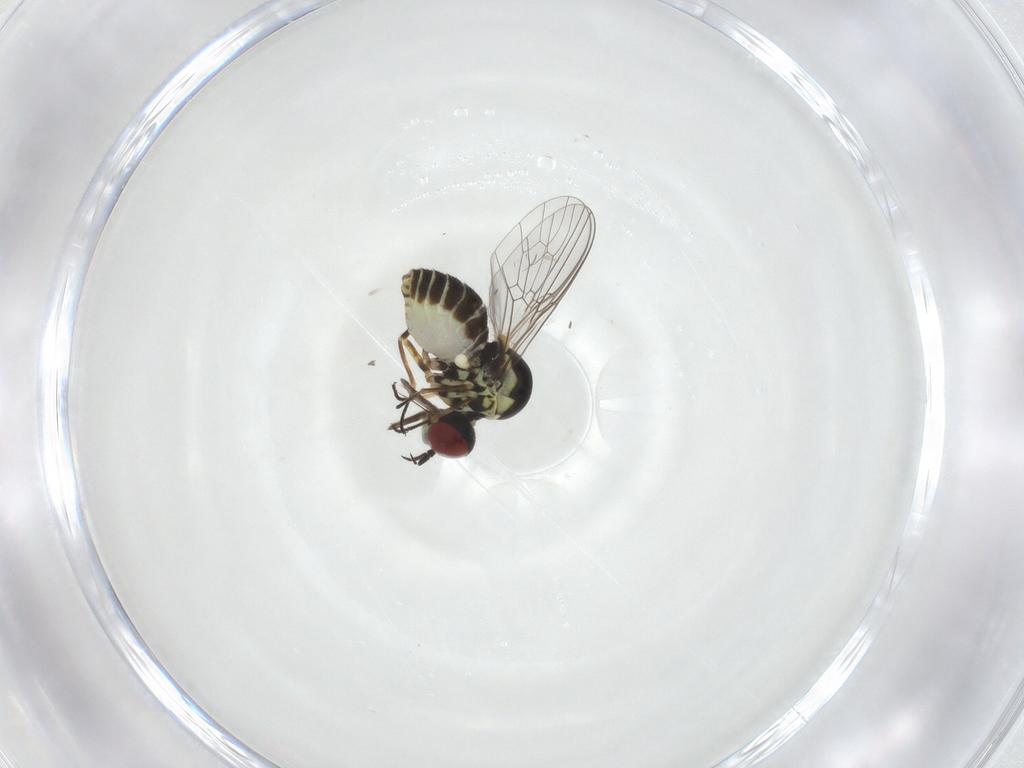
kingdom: Animalia
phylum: Arthropoda
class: Insecta
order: Diptera
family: Mythicomyiidae
